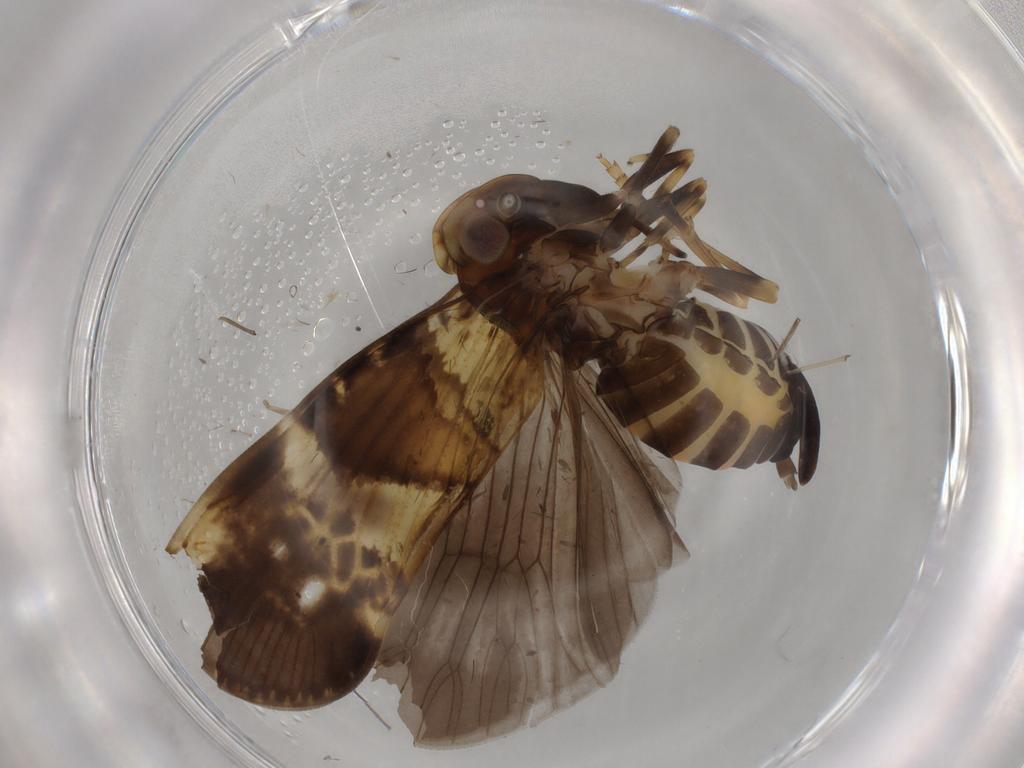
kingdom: Animalia
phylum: Arthropoda
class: Insecta
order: Hemiptera
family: Cixiidae
